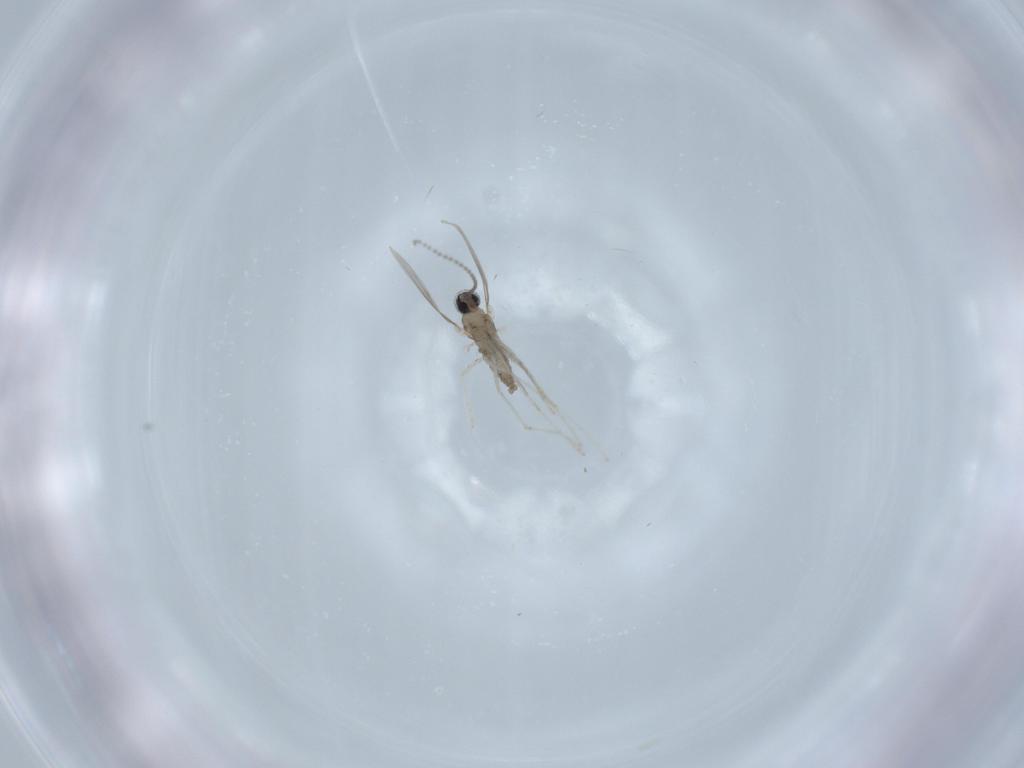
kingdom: Animalia
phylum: Arthropoda
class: Insecta
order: Diptera
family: Cecidomyiidae
